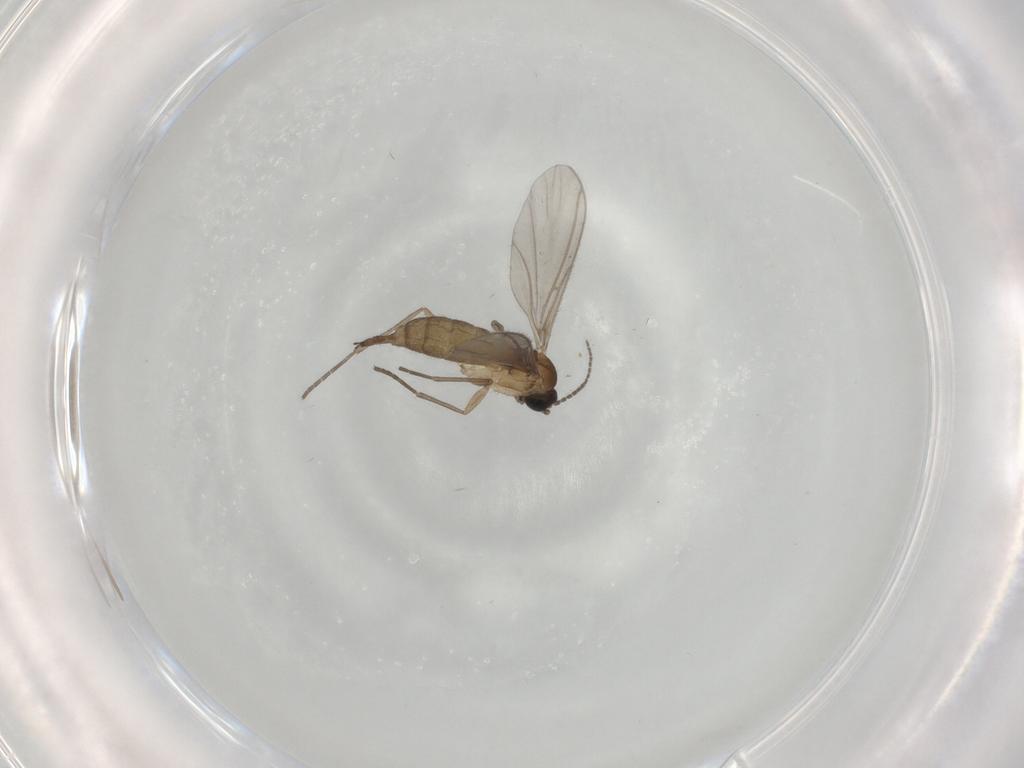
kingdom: Animalia
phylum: Arthropoda
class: Insecta
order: Diptera
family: Sciaridae
